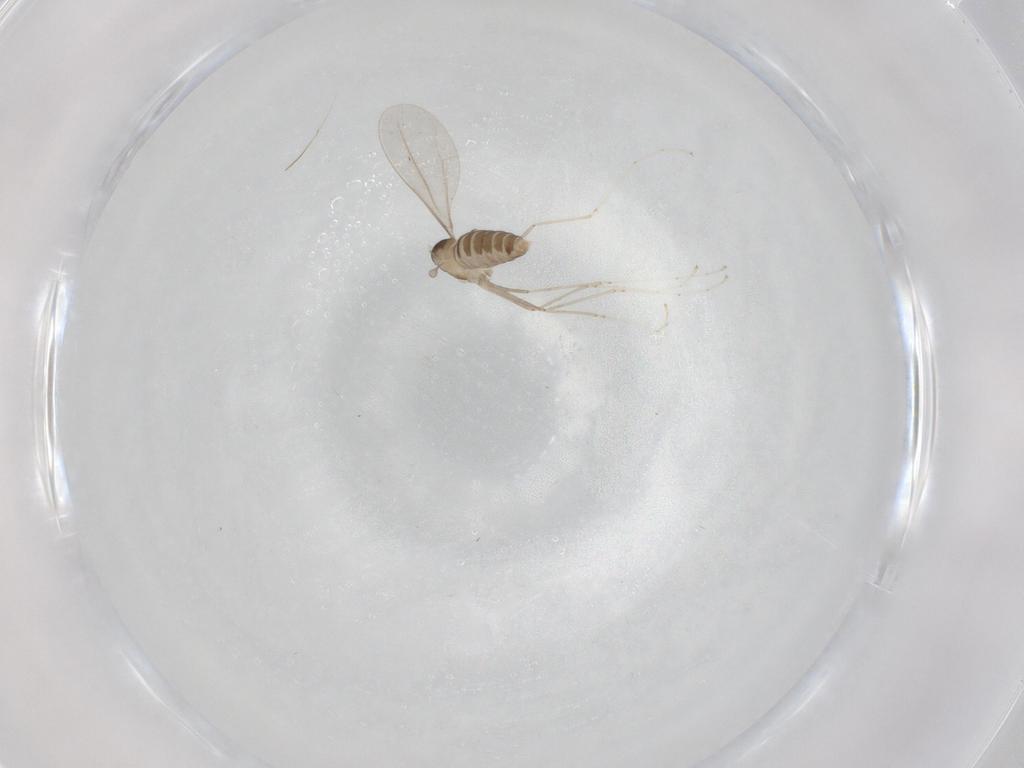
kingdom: Animalia
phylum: Arthropoda
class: Insecta
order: Diptera
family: Cecidomyiidae
